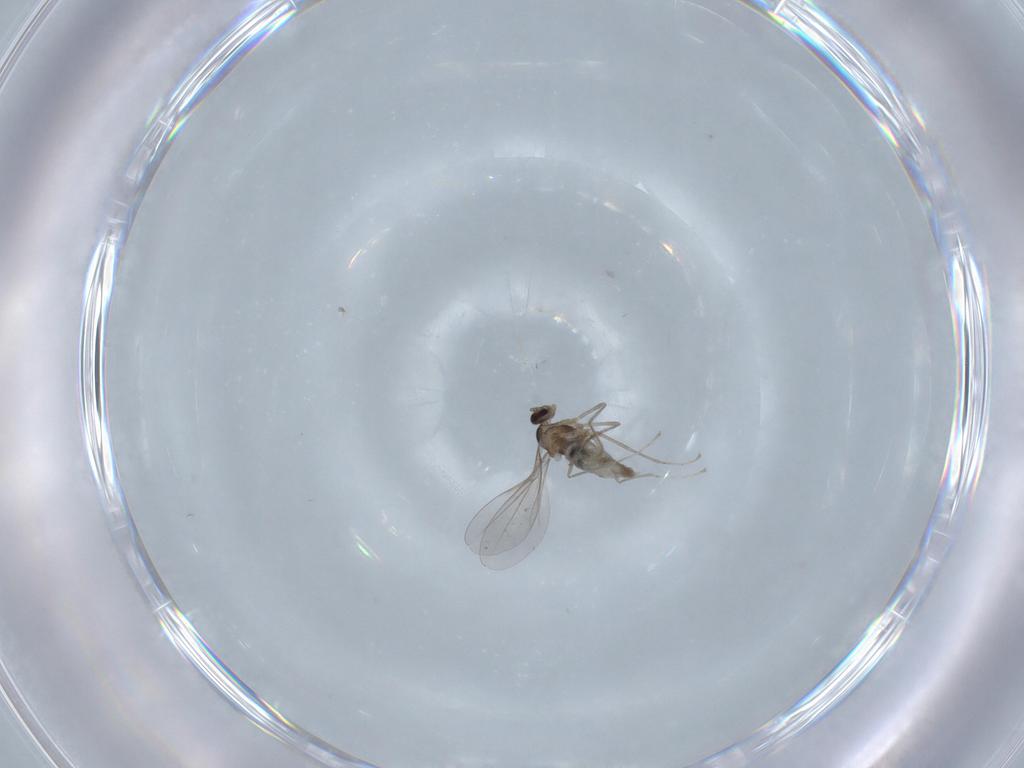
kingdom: Animalia
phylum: Arthropoda
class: Insecta
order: Diptera
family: Cecidomyiidae
